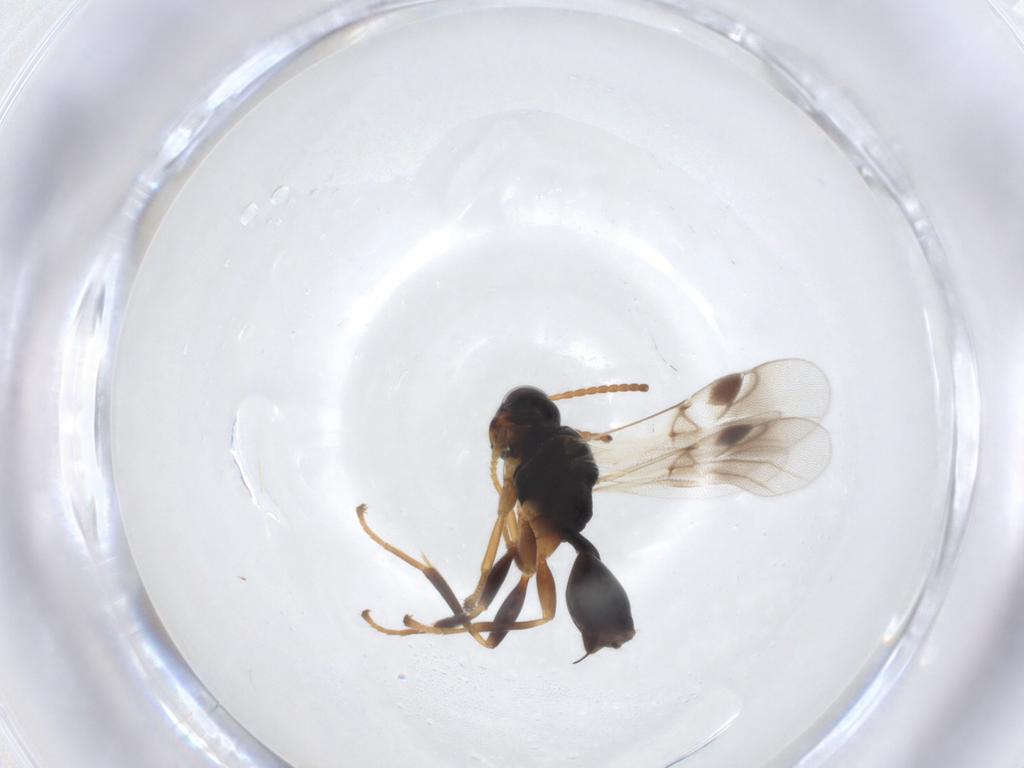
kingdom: Animalia
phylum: Arthropoda
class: Insecta
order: Hymenoptera
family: Braconidae
